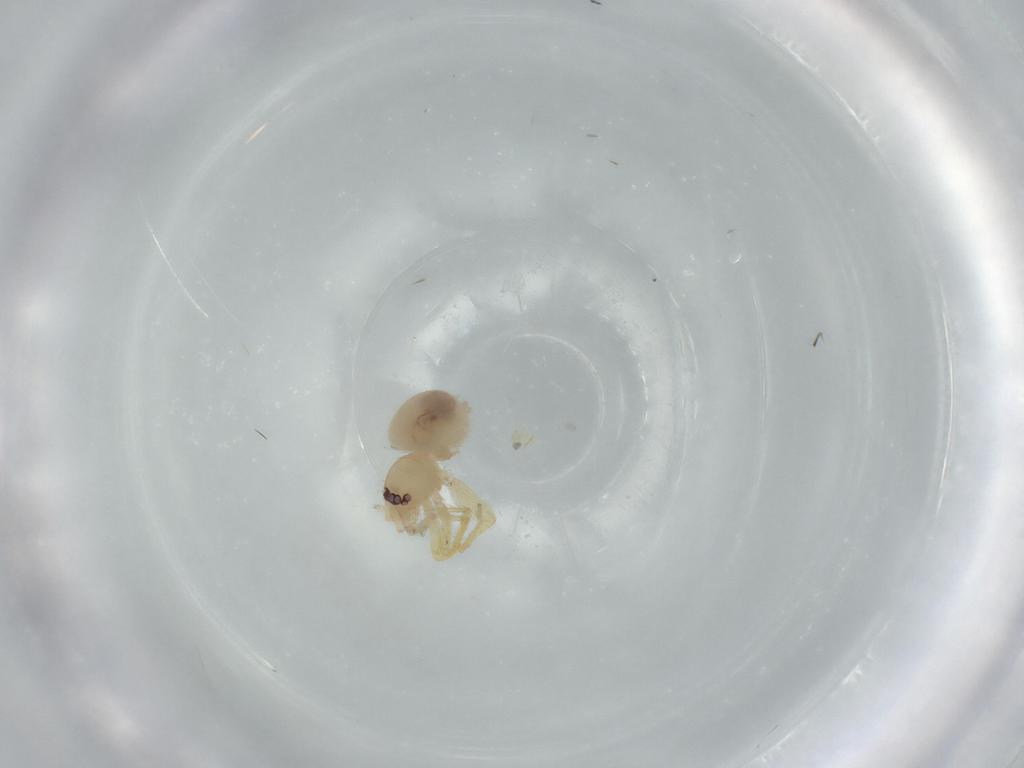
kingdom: Animalia
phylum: Arthropoda
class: Arachnida
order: Araneae
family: Oonopidae
